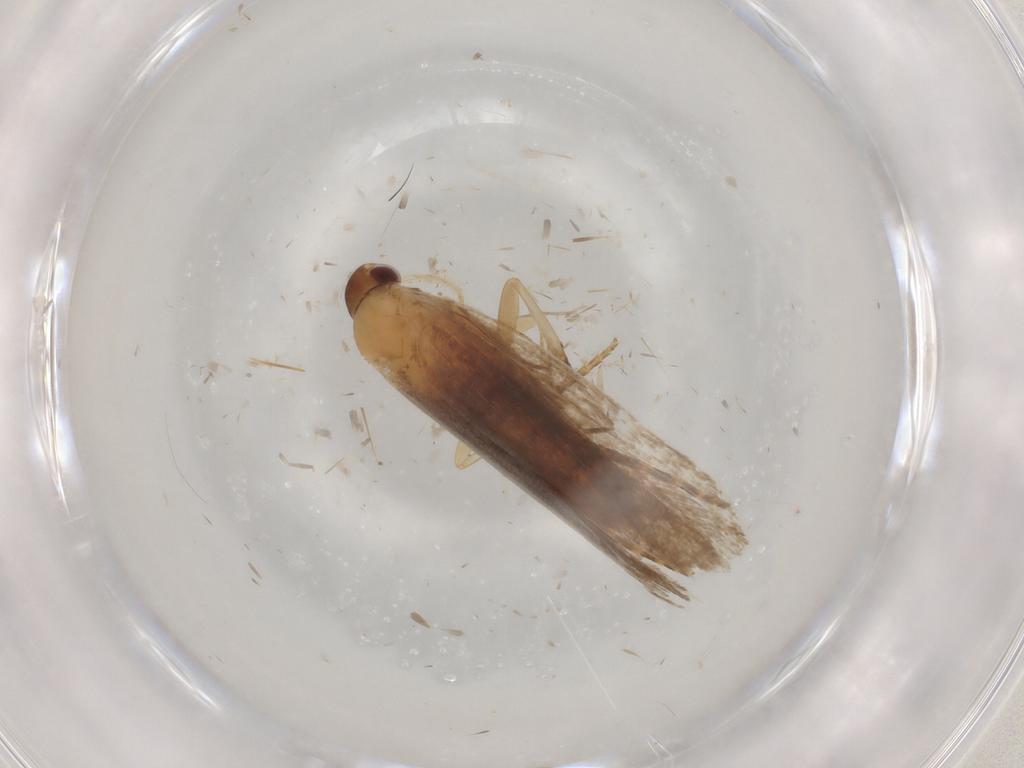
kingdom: Animalia
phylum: Arthropoda
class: Insecta
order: Lepidoptera
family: Gelechiidae
